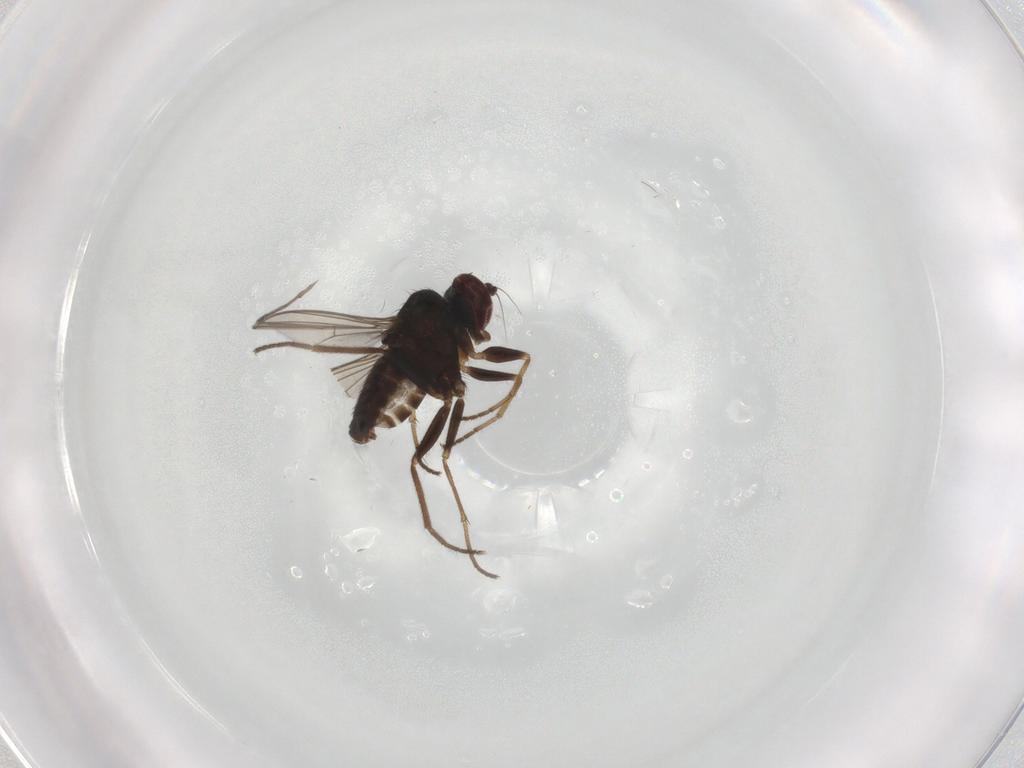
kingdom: Animalia
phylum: Arthropoda
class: Insecta
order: Diptera
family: Dolichopodidae
